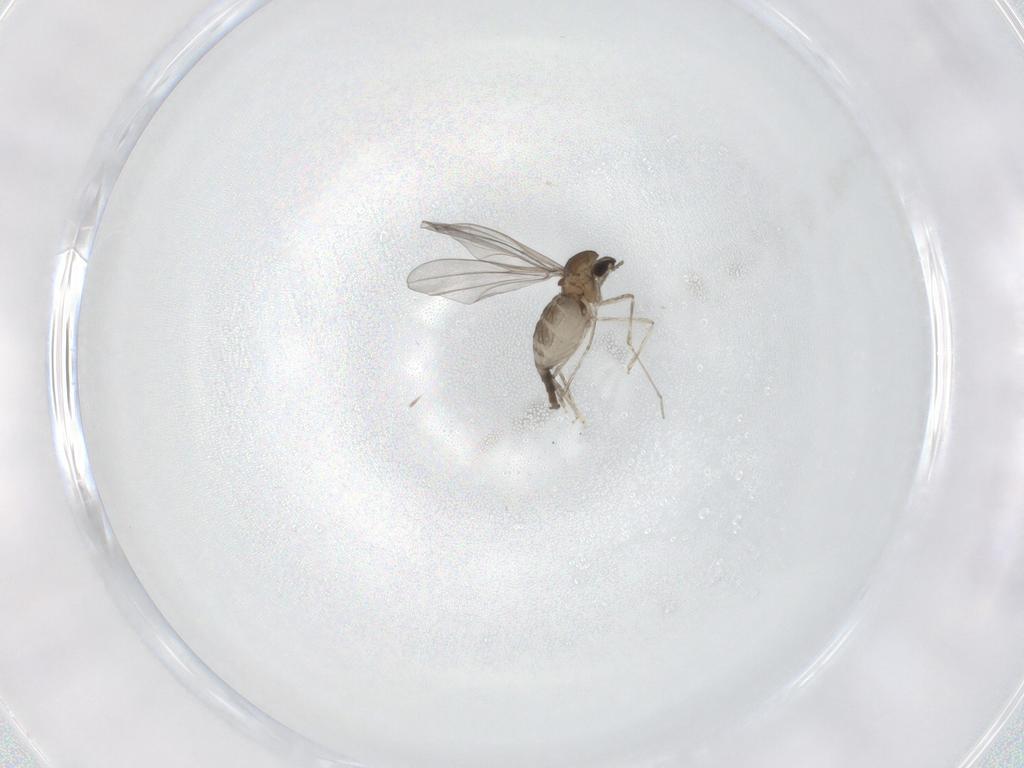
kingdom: Animalia
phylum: Arthropoda
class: Insecta
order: Diptera
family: Cecidomyiidae
